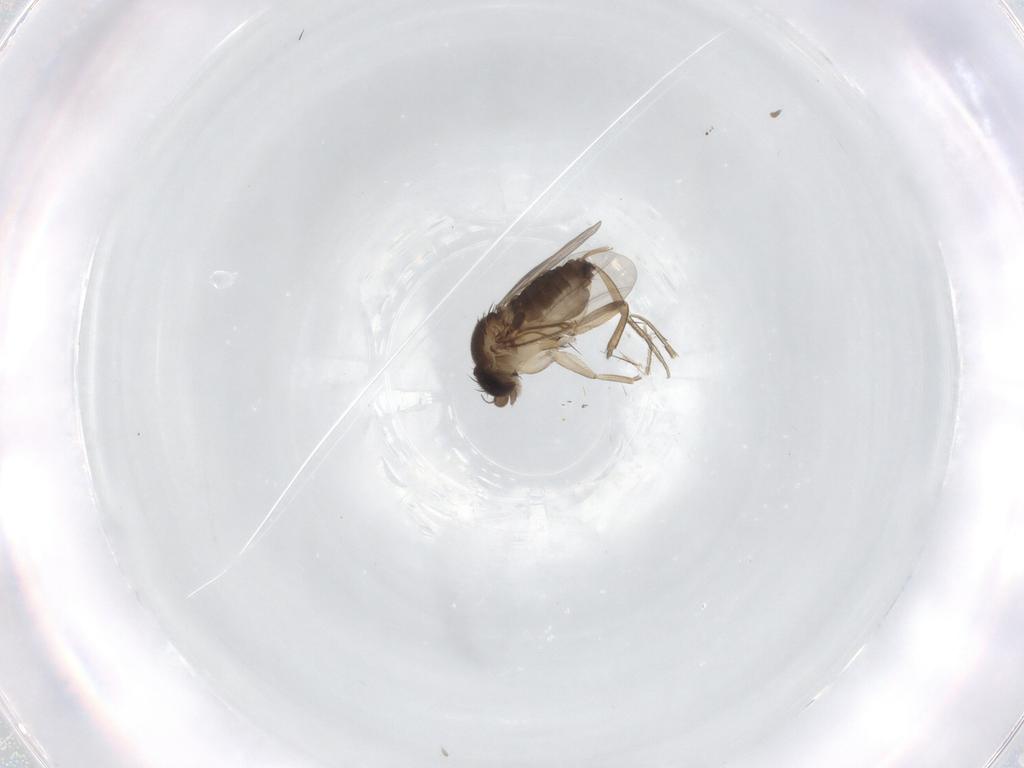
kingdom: Animalia
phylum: Arthropoda
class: Insecta
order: Diptera
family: Phoridae
